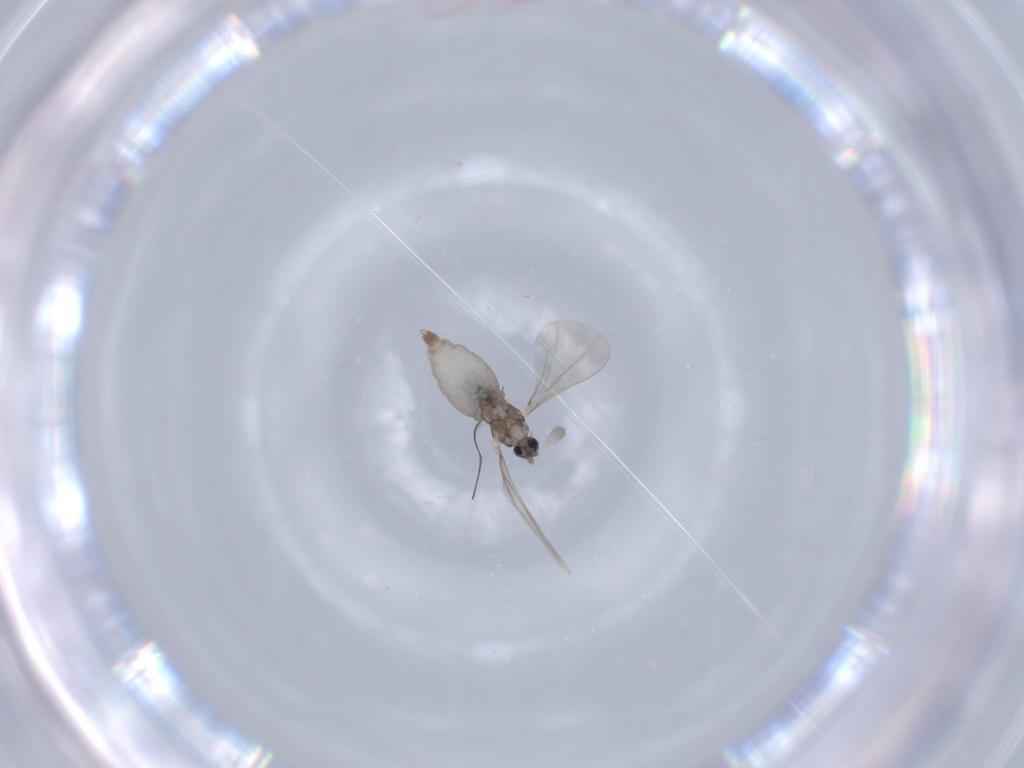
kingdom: Animalia
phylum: Arthropoda
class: Insecta
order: Diptera
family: Cecidomyiidae
